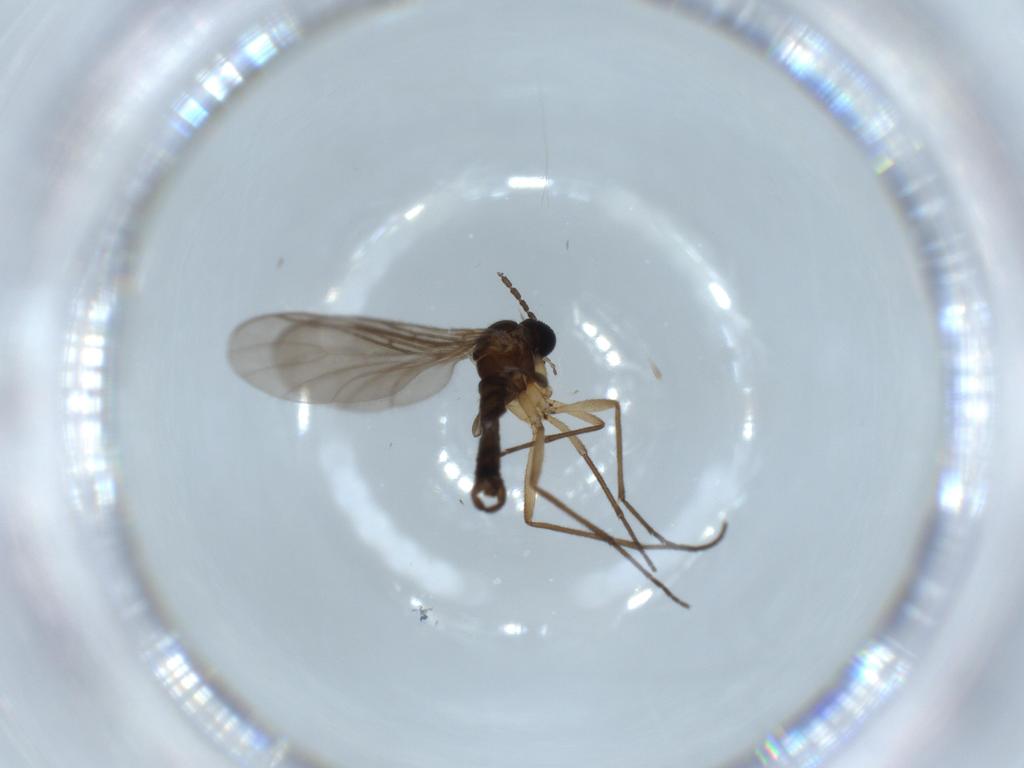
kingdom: Animalia
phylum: Arthropoda
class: Insecta
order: Diptera
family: Sciaridae
